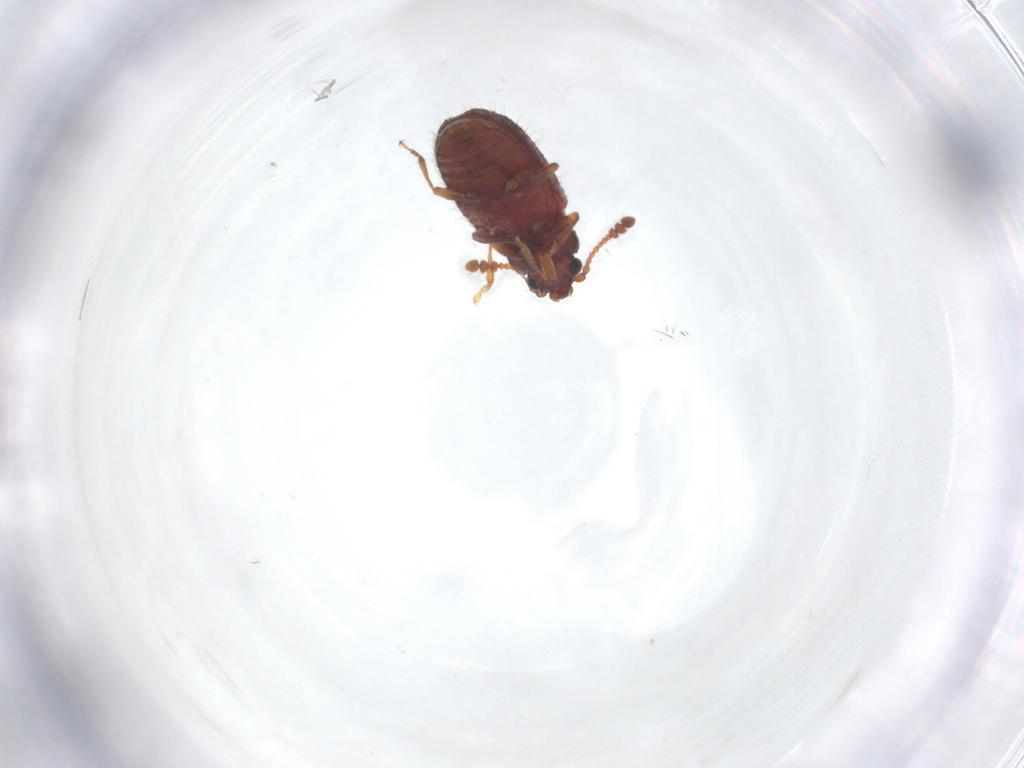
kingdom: Animalia
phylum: Arthropoda
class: Insecta
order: Coleoptera
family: Cryptophagidae
